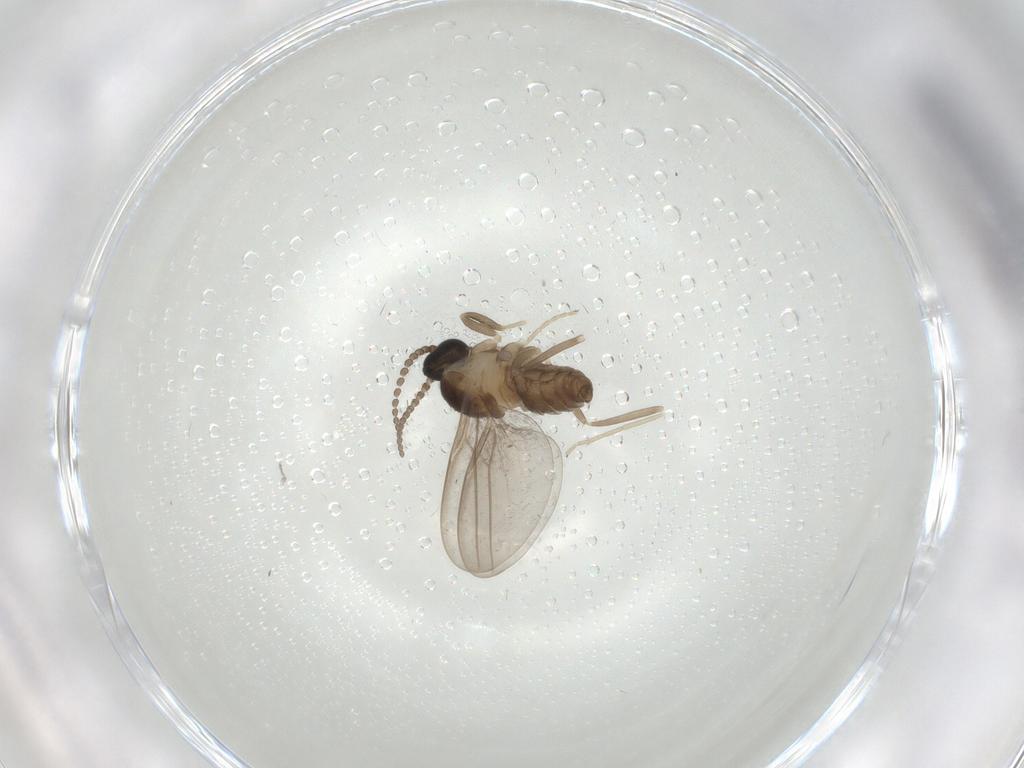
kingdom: Animalia
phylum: Arthropoda
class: Insecta
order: Diptera
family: Cecidomyiidae
